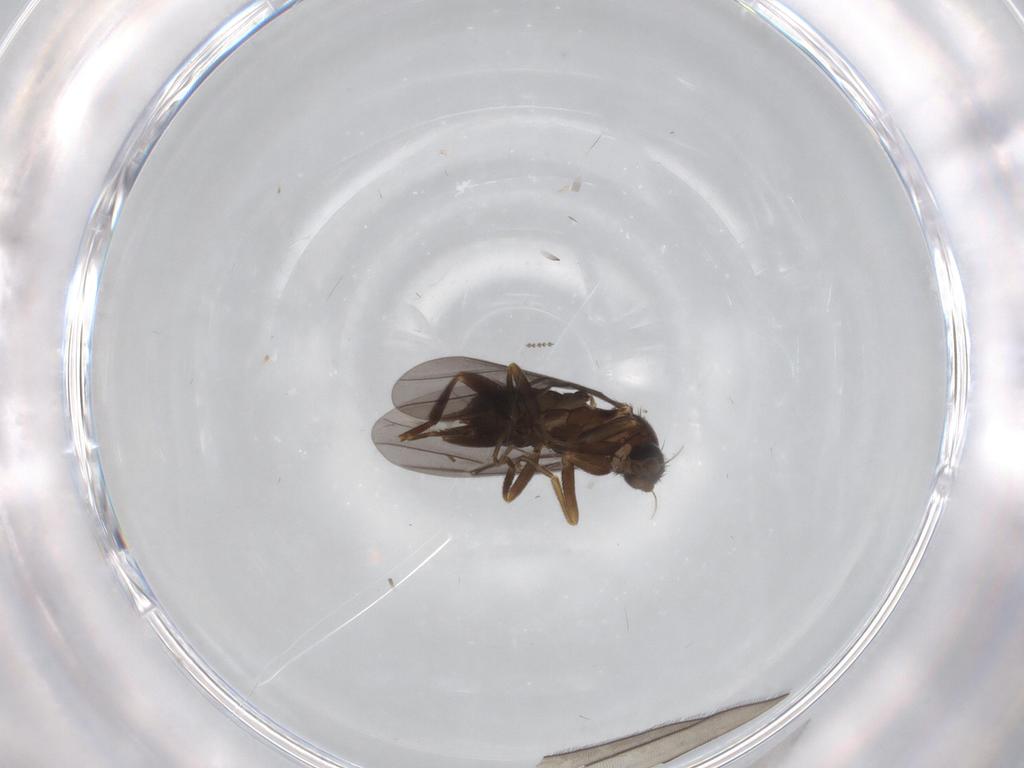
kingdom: Animalia
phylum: Arthropoda
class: Insecta
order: Diptera
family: Phoridae
